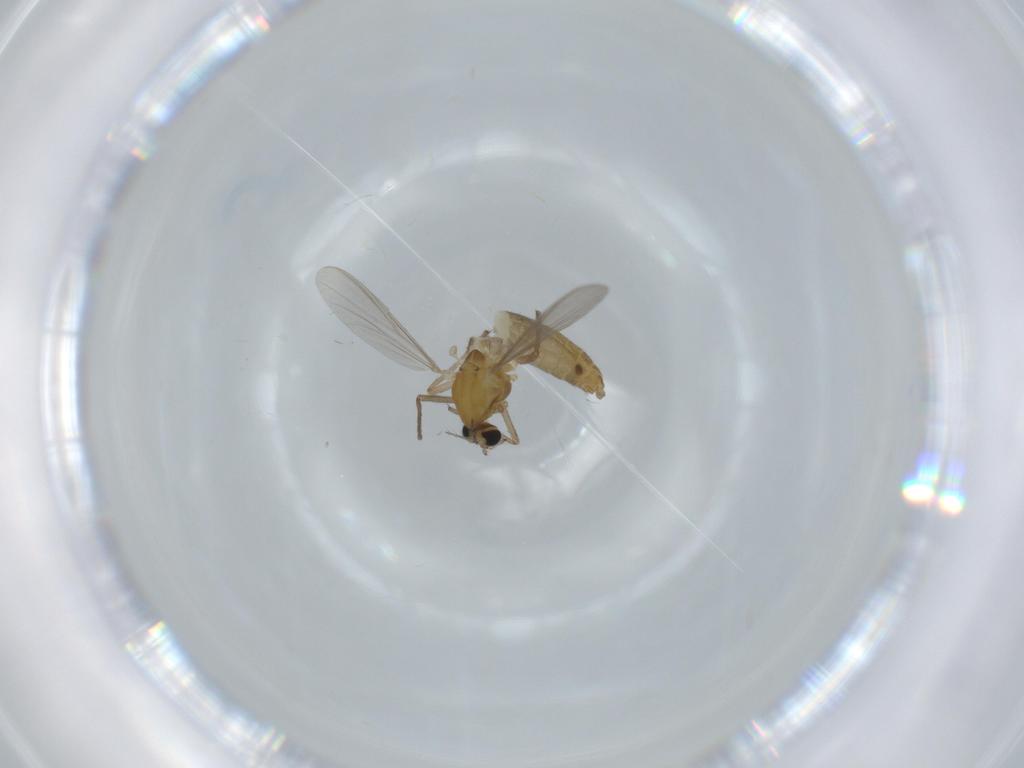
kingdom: Animalia
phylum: Arthropoda
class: Insecta
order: Diptera
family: Chironomidae
